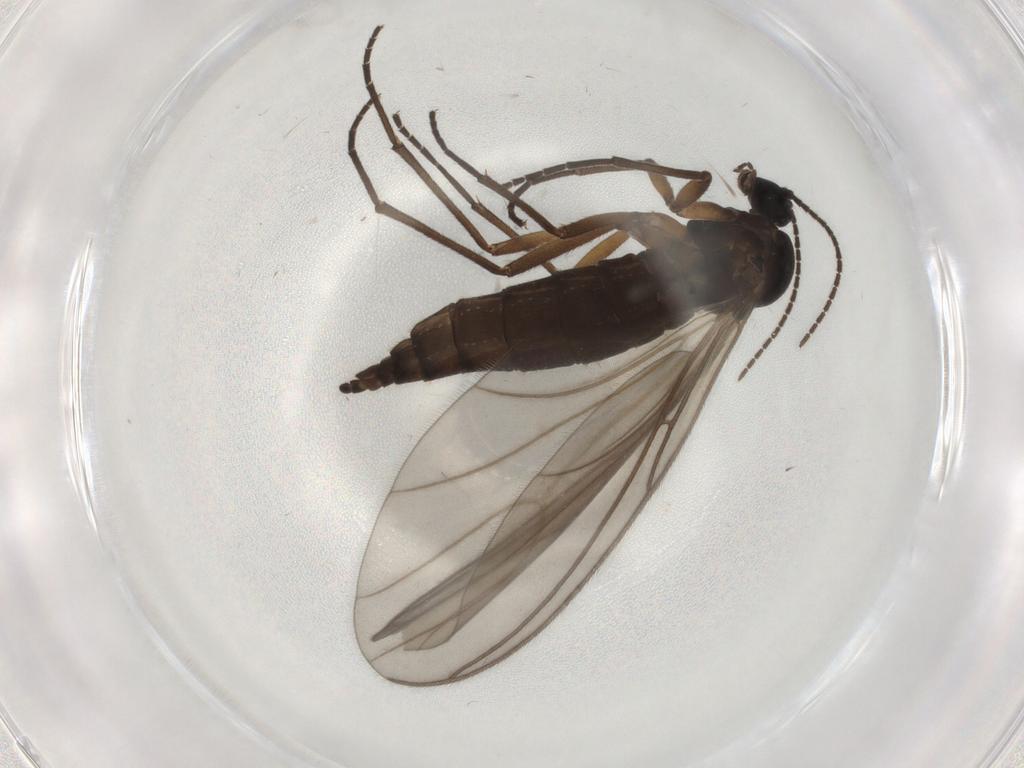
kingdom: Animalia
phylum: Arthropoda
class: Insecta
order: Diptera
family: Sciaridae
